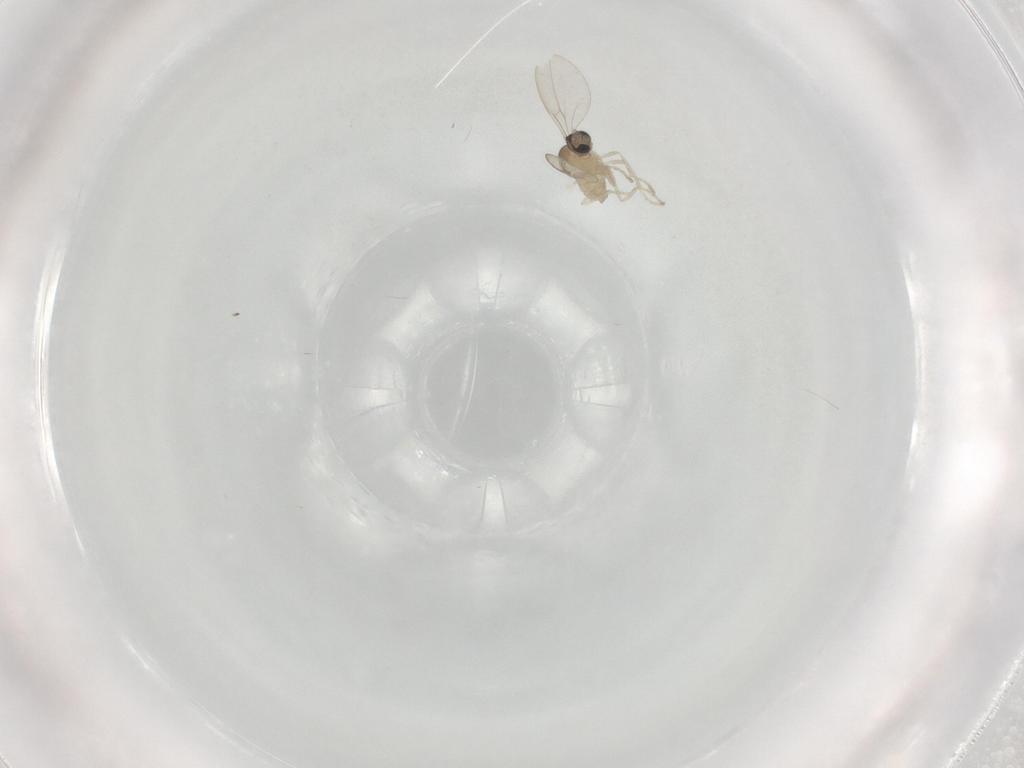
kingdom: Animalia
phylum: Arthropoda
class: Insecta
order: Diptera
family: Cecidomyiidae
